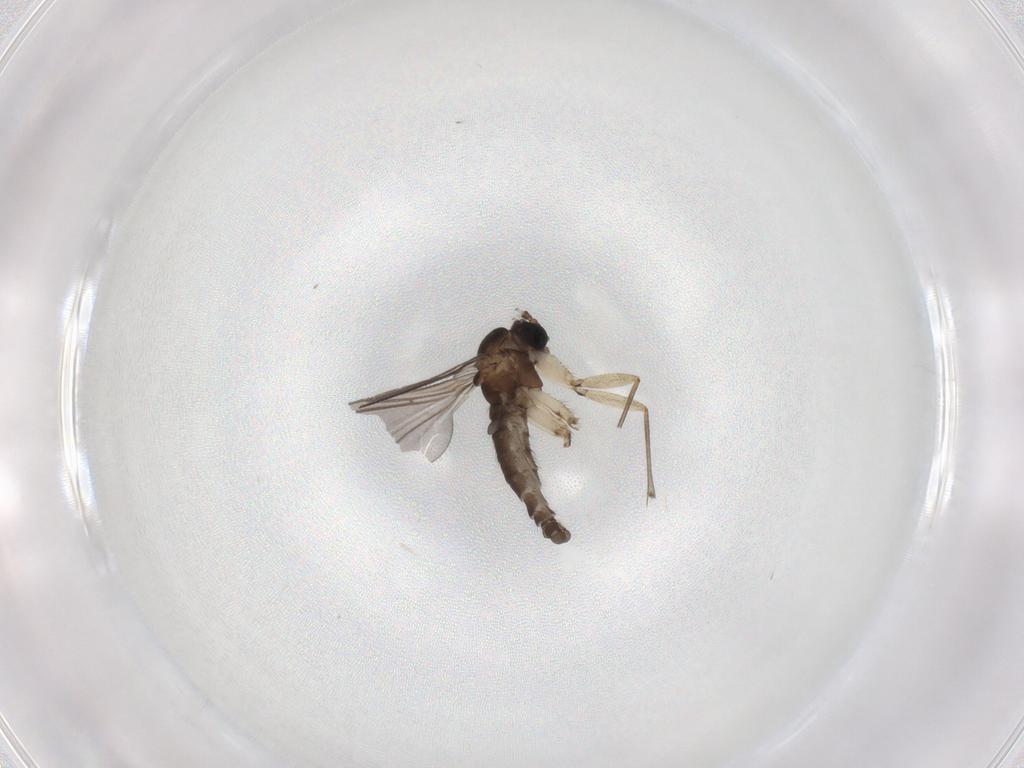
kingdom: Animalia
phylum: Arthropoda
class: Insecta
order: Diptera
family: Sciaridae
